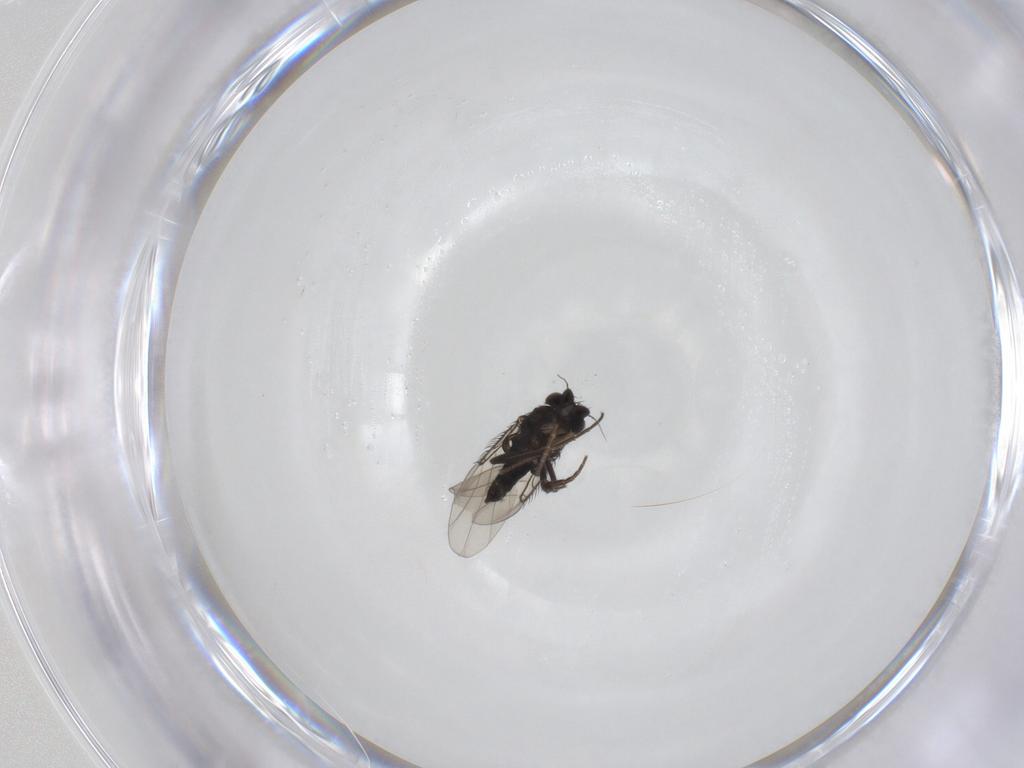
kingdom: Animalia
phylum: Arthropoda
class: Insecta
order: Diptera
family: Phoridae
